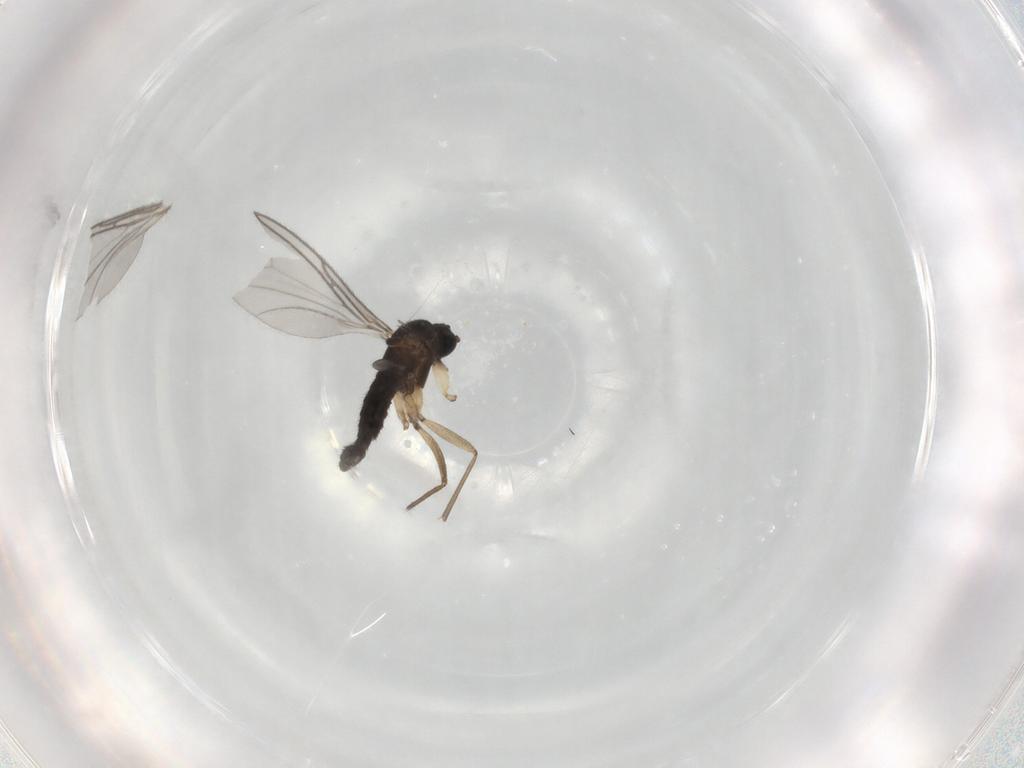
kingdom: Animalia
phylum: Arthropoda
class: Insecta
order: Diptera
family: Sciaridae
